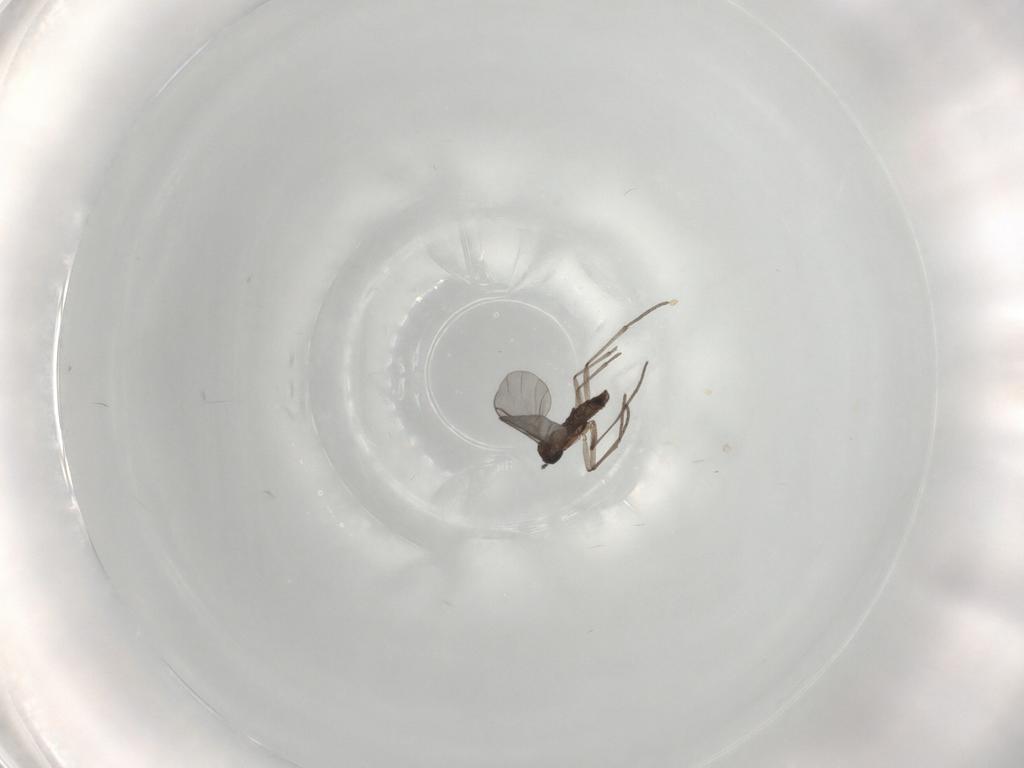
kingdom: Animalia
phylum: Arthropoda
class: Insecta
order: Diptera
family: Sciaridae
